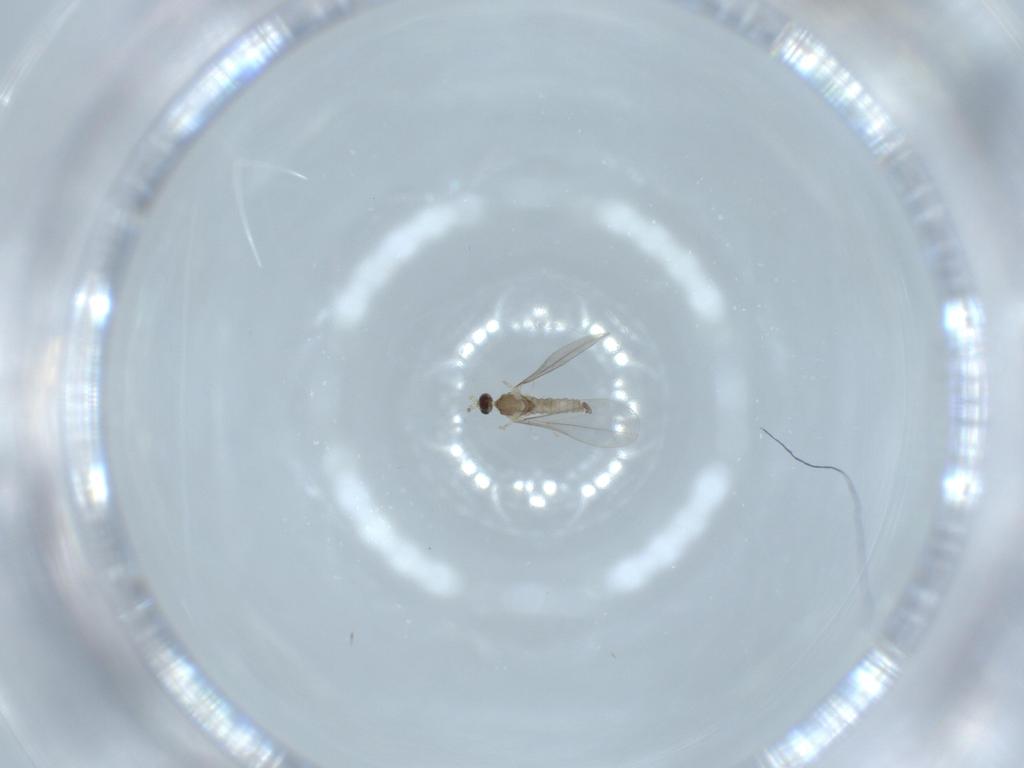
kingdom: Animalia
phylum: Arthropoda
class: Insecta
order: Diptera
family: Cecidomyiidae
